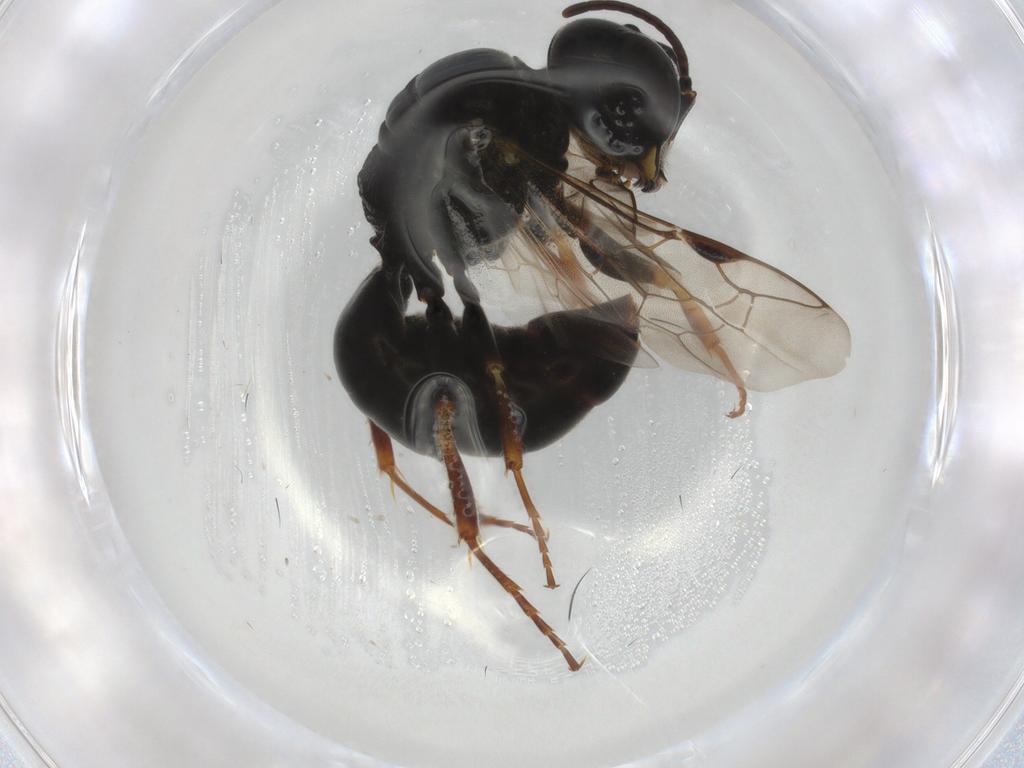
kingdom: Animalia
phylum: Arthropoda
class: Insecta
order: Hymenoptera
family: Crabronidae
